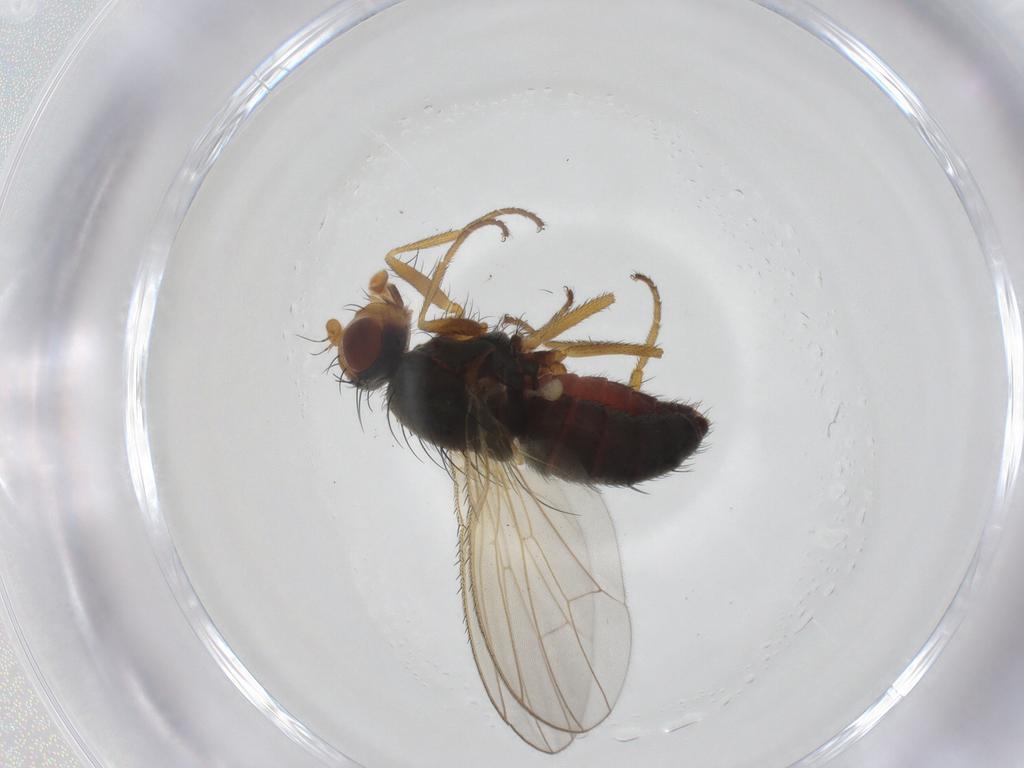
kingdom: Animalia
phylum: Arthropoda
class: Insecta
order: Diptera
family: Heleomyzidae
